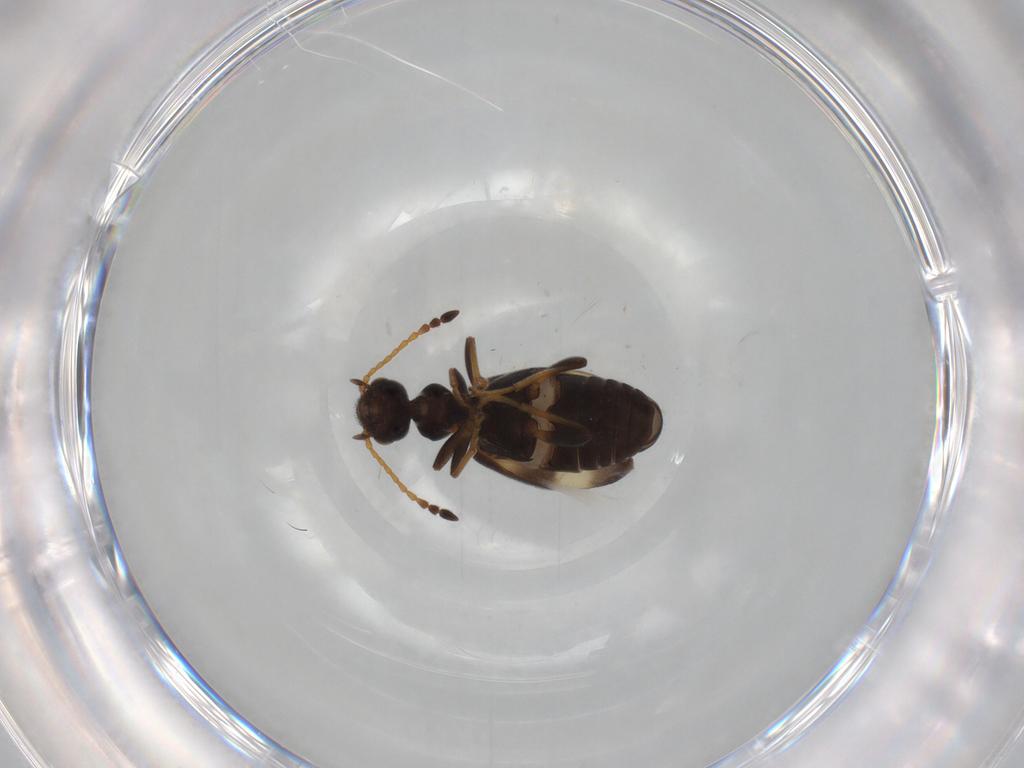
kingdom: Animalia
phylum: Arthropoda
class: Insecta
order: Coleoptera
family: Anthicidae
